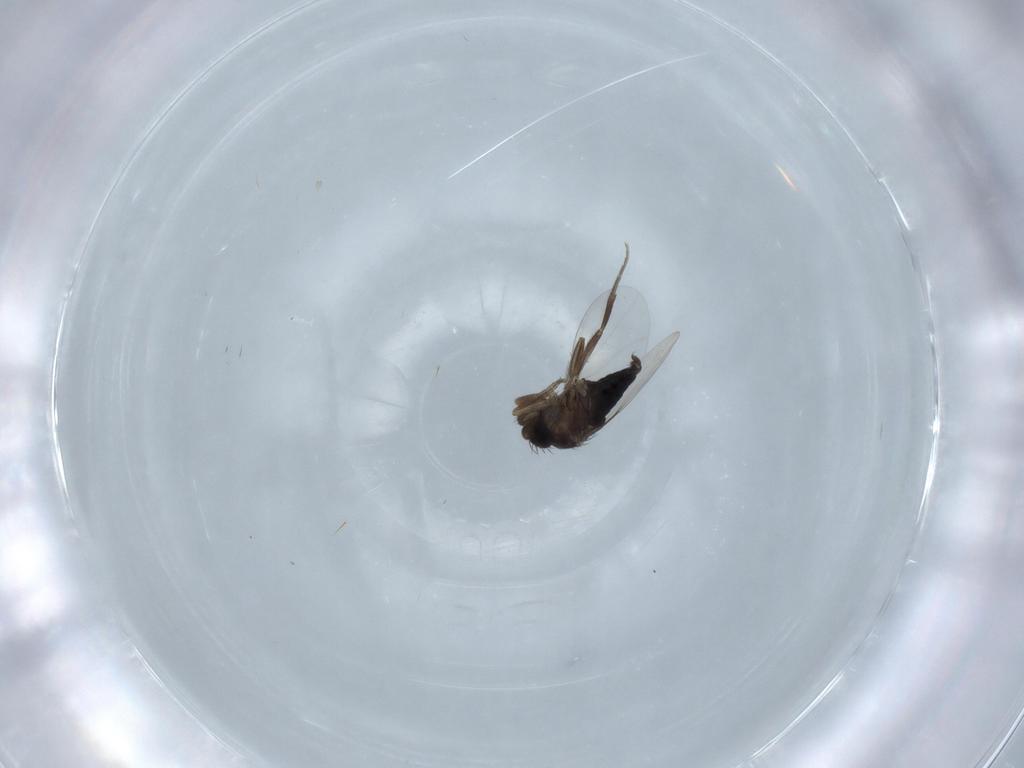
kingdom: Animalia
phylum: Arthropoda
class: Insecta
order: Diptera
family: Phoridae
